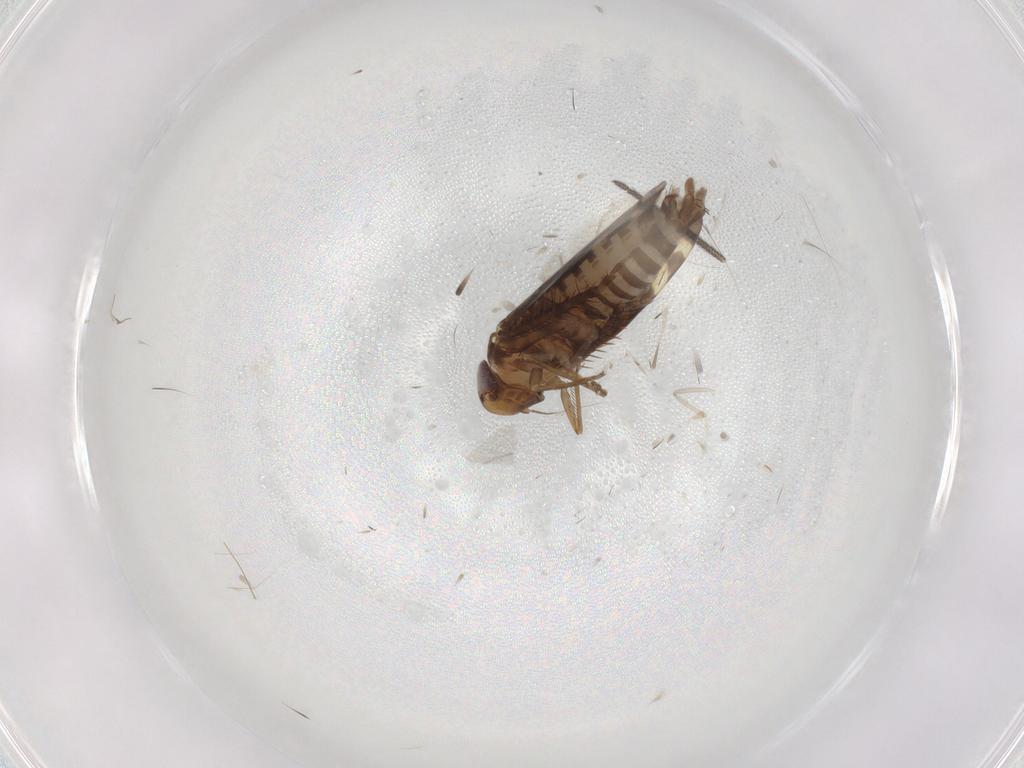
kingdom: Animalia
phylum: Arthropoda
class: Insecta
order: Hemiptera
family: Cicadellidae
